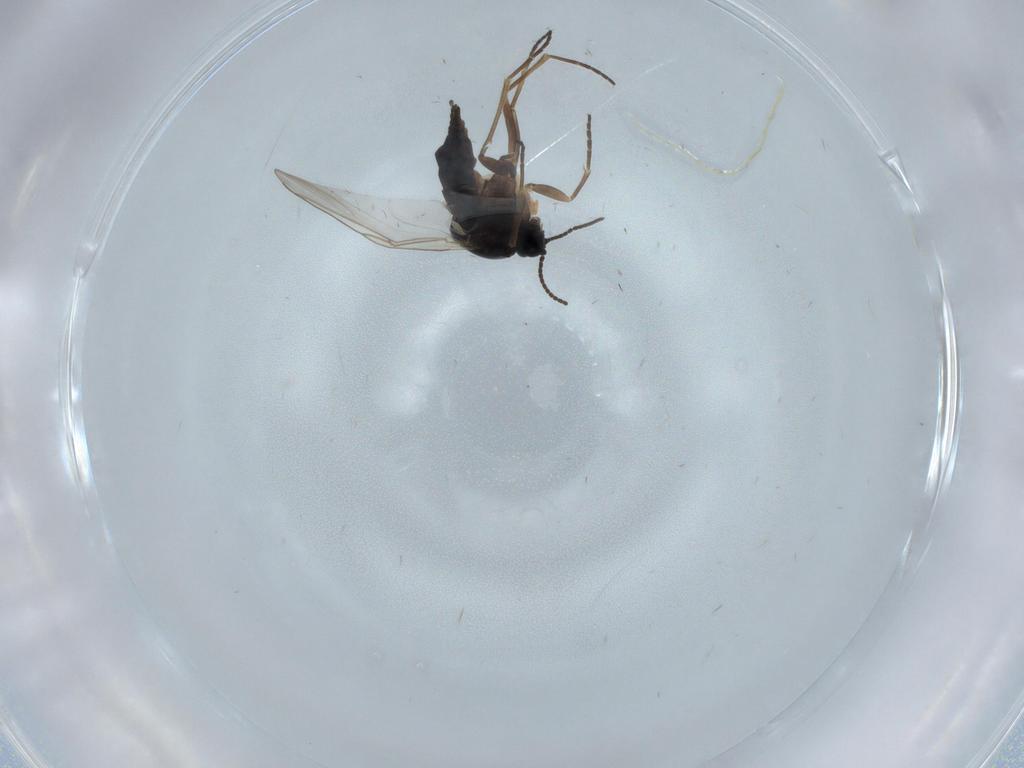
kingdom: Animalia
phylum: Arthropoda
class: Insecta
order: Diptera
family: Sciaridae
